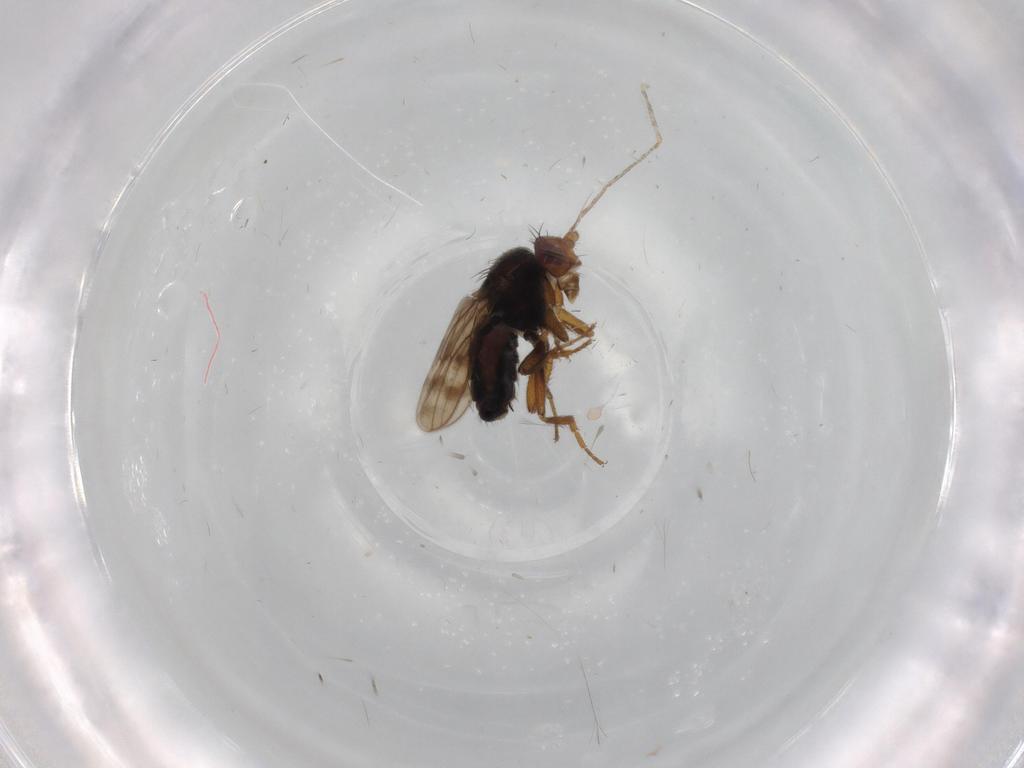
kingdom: Animalia
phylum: Arthropoda
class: Insecta
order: Diptera
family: Sphaeroceridae
